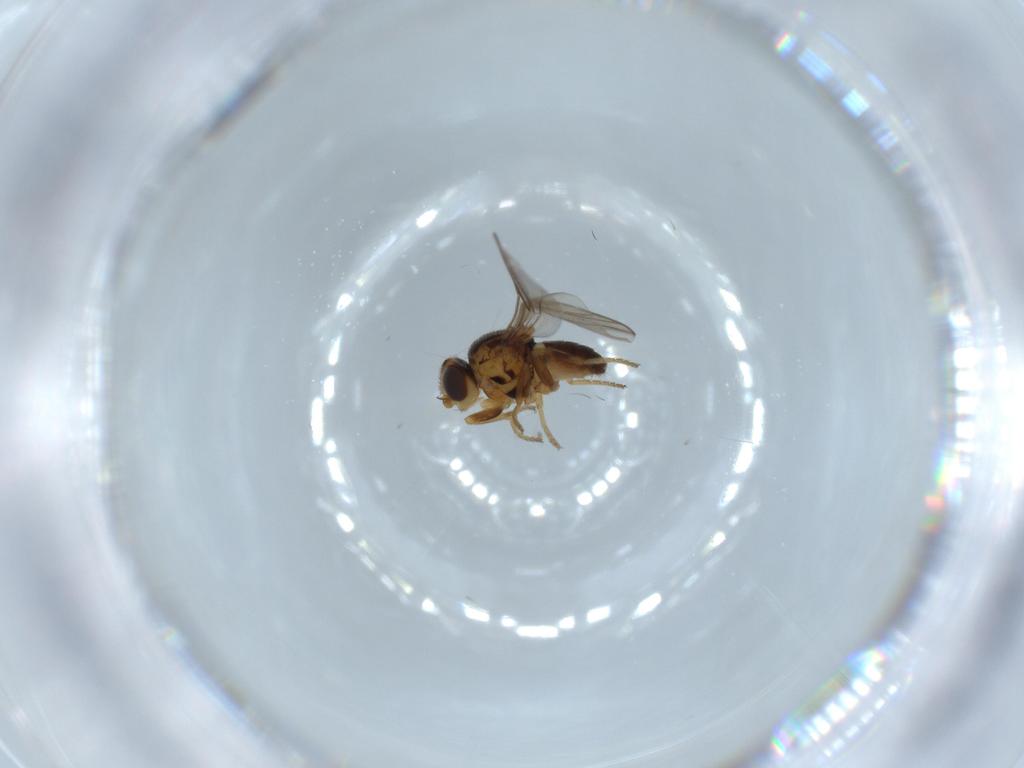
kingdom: Animalia
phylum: Arthropoda
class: Insecta
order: Diptera
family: Chloropidae
